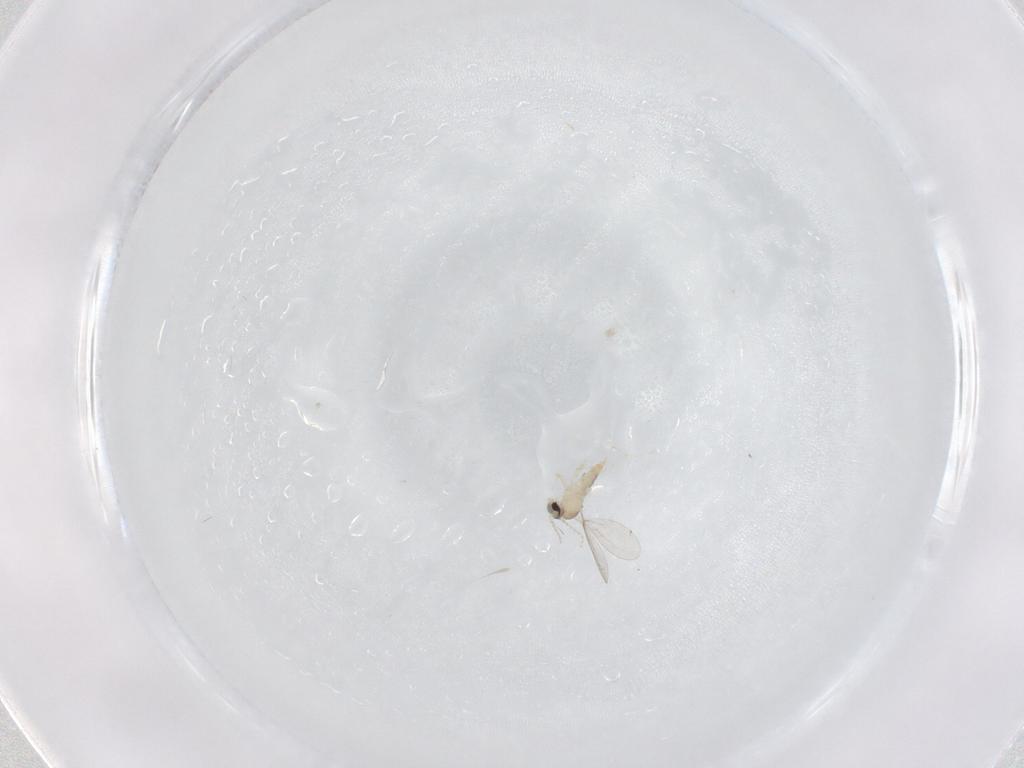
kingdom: Animalia
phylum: Arthropoda
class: Insecta
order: Diptera
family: Cecidomyiidae
